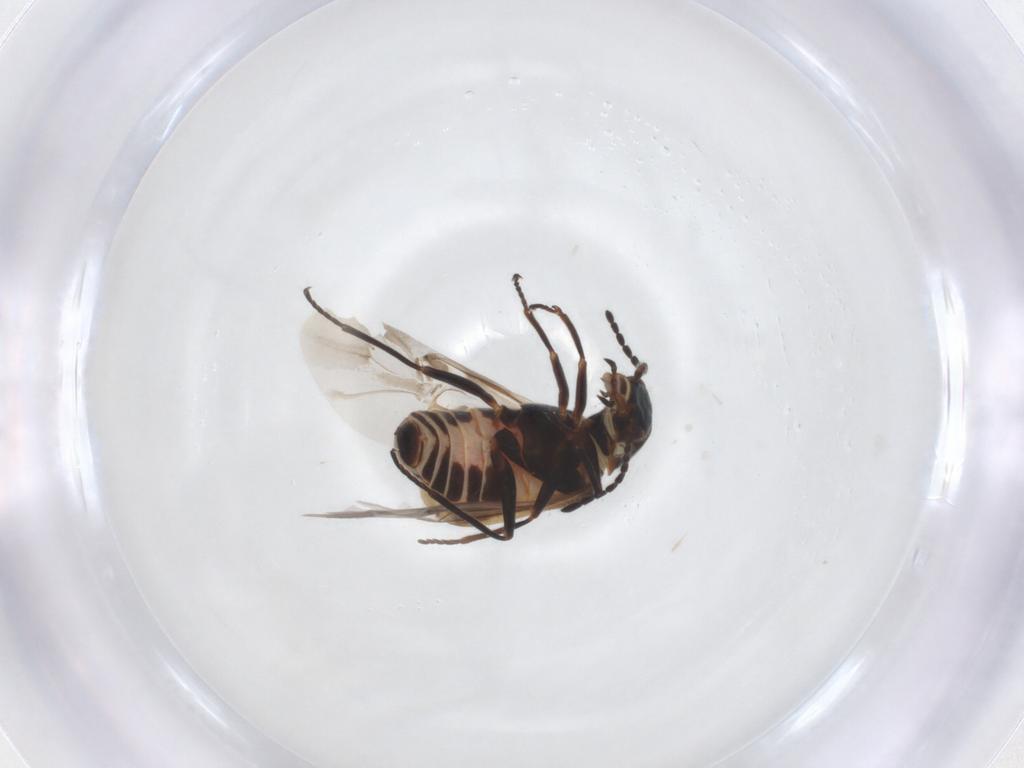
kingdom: Animalia
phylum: Arthropoda
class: Insecta
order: Coleoptera
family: Melyridae
